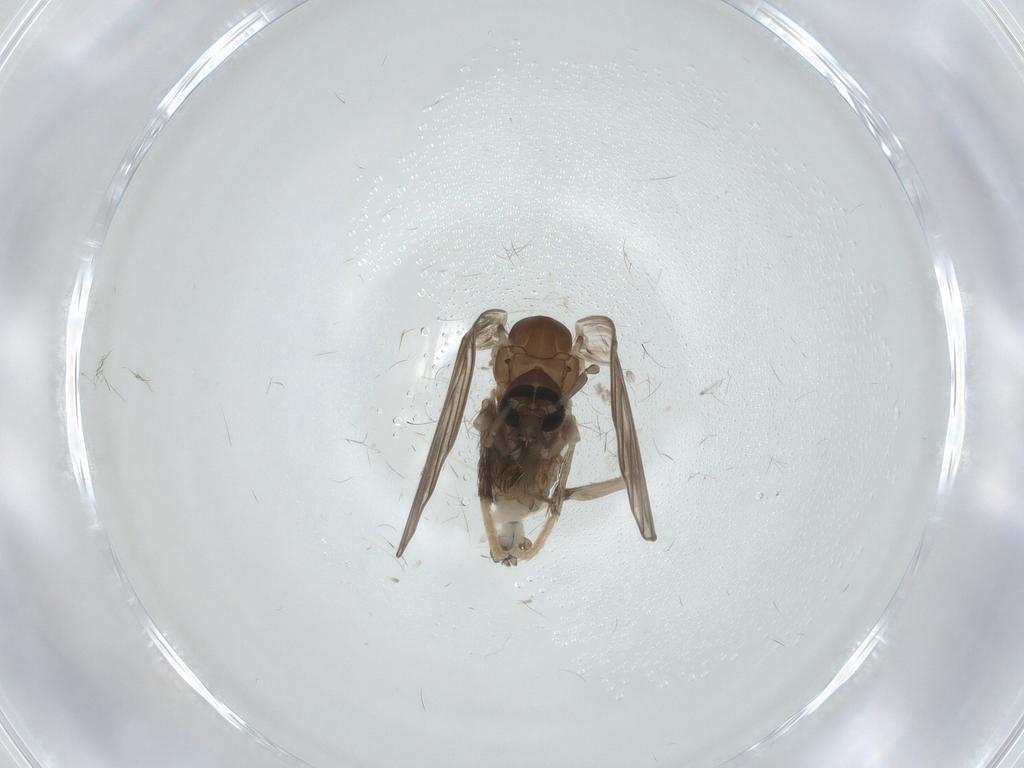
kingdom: Animalia
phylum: Arthropoda
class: Insecta
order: Diptera
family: Psychodidae
